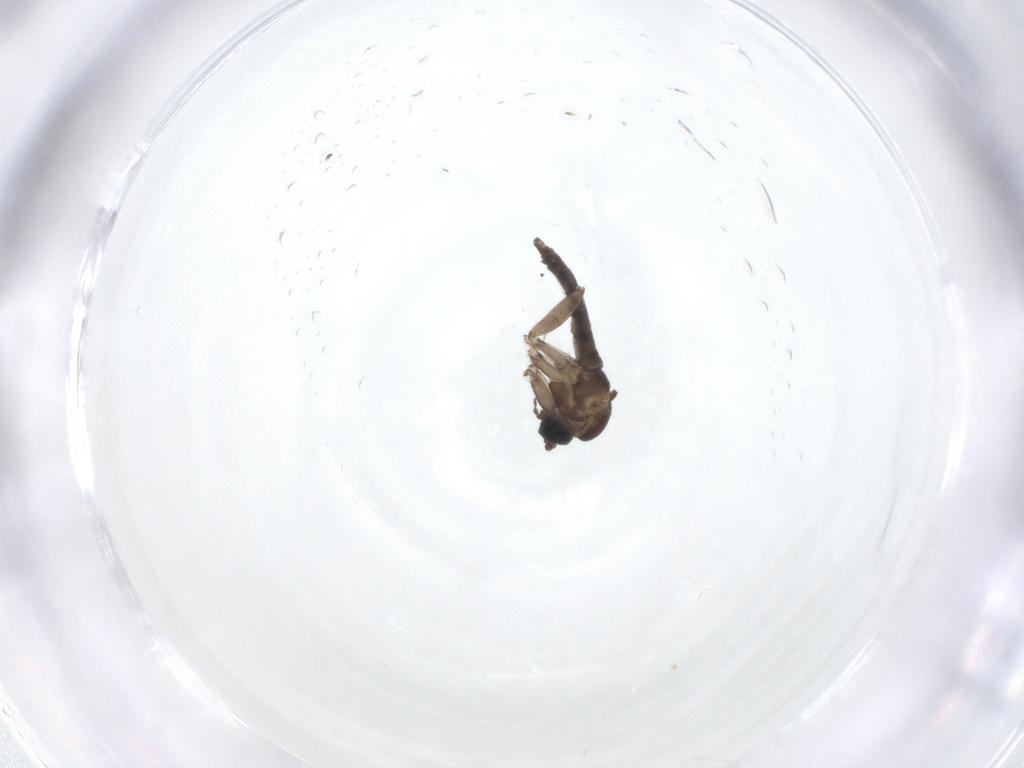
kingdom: Animalia
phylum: Arthropoda
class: Insecta
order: Diptera
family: Sciaridae
